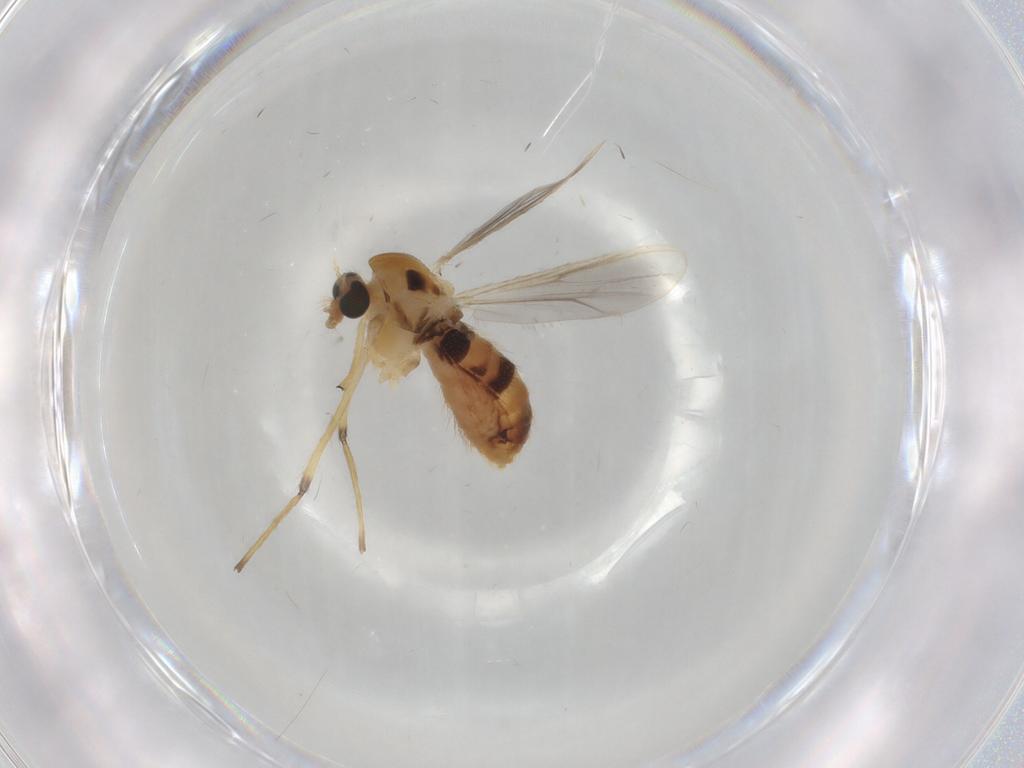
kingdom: Animalia
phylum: Arthropoda
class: Insecta
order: Diptera
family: Chironomidae
